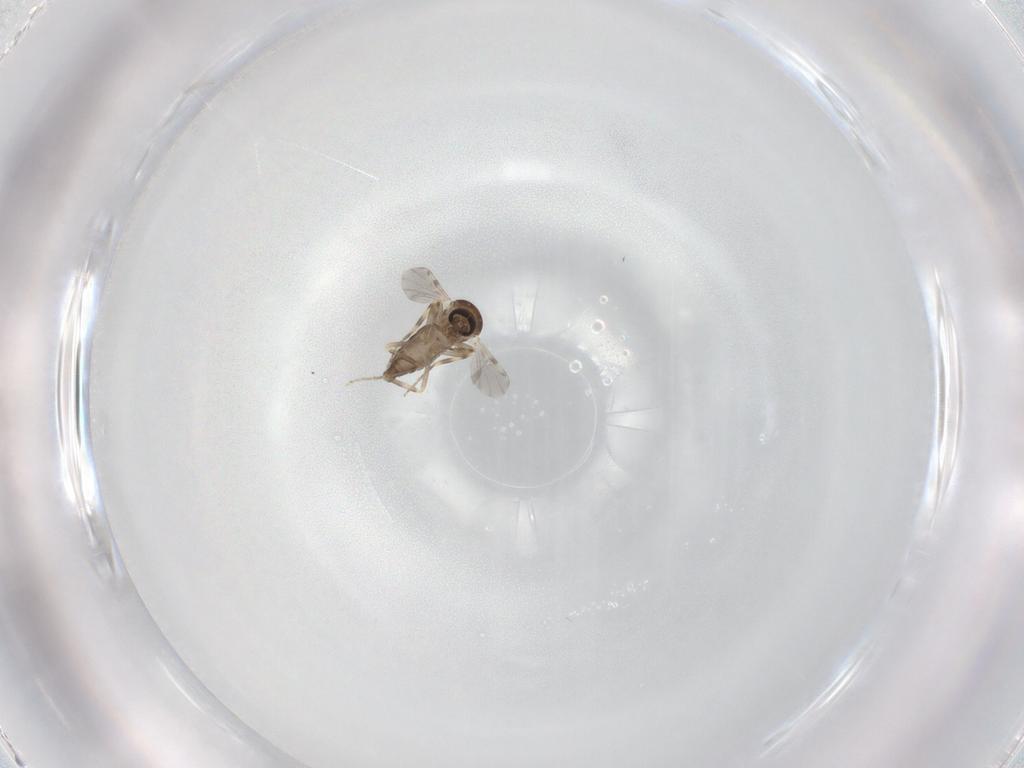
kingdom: Animalia
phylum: Arthropoda
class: Insecta
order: Diptera
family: Ceratopogonidae
